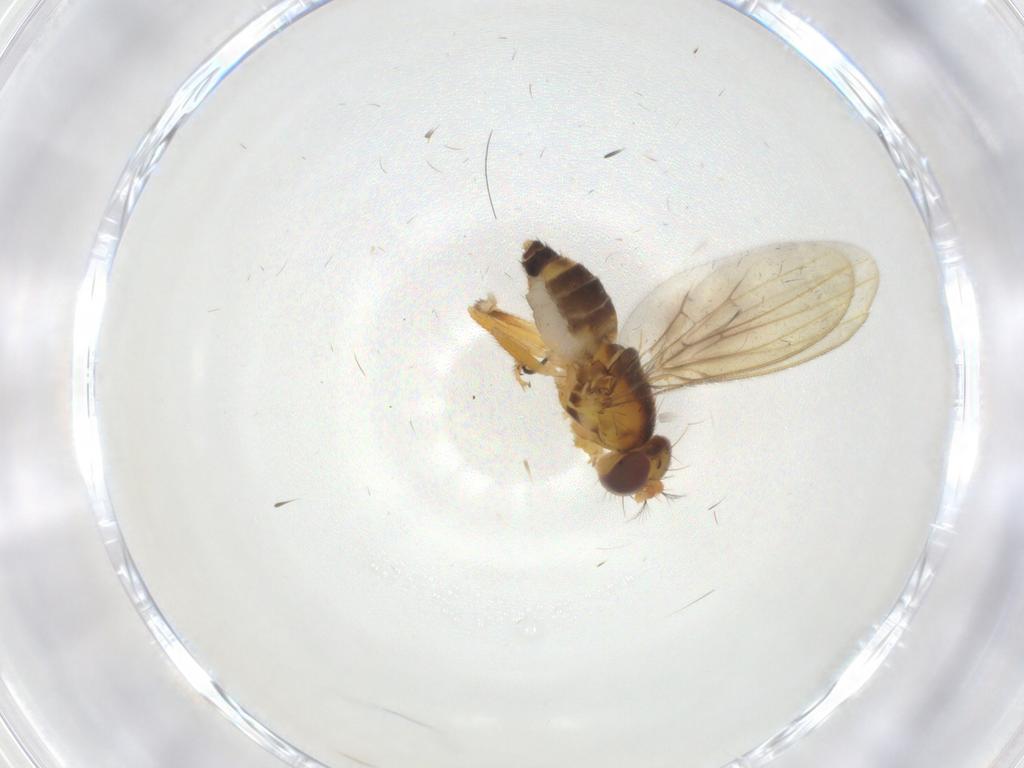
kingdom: Animalia
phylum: Arthropoda
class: Insecta
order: Diptera
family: Periscelididae
